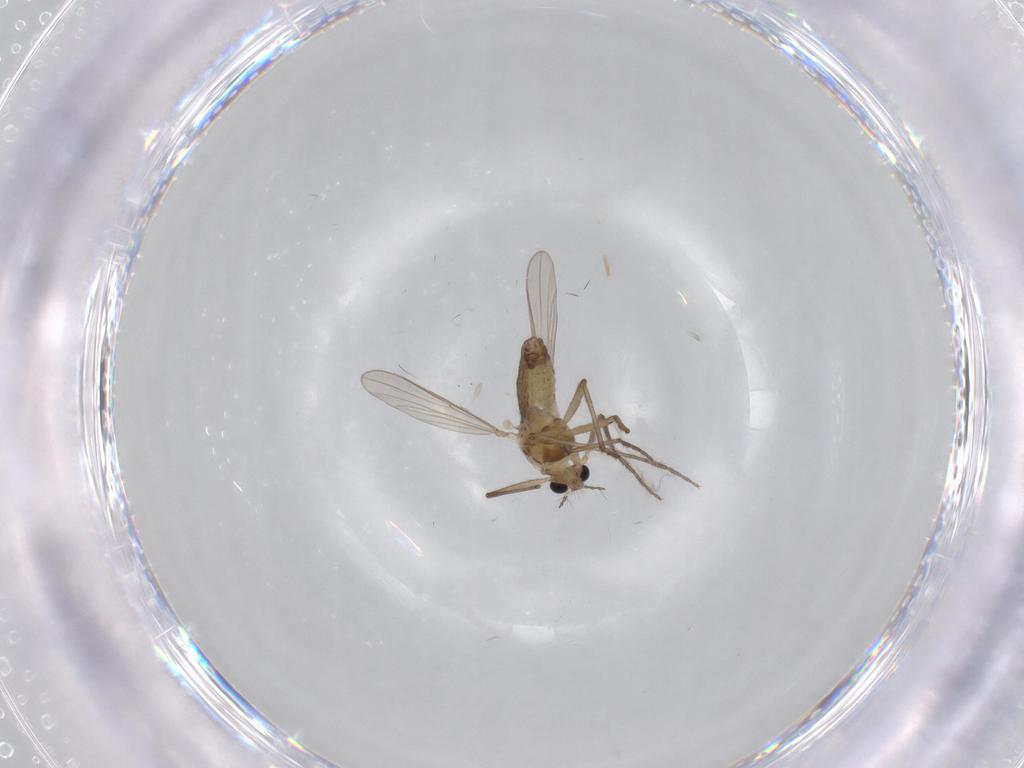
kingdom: Animalia
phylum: Arthropoda
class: Insecta
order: Diptera
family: Chironomidae
